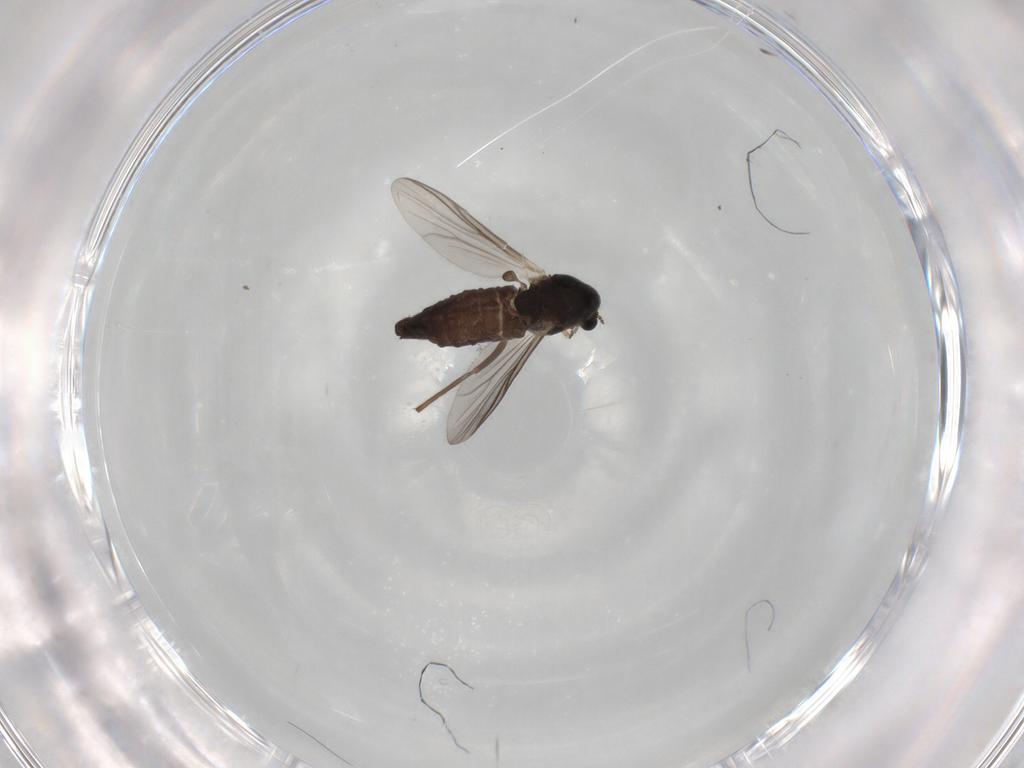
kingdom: Animalia
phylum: Arthropoda
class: Insecta
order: Diptera
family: Chironomidae
